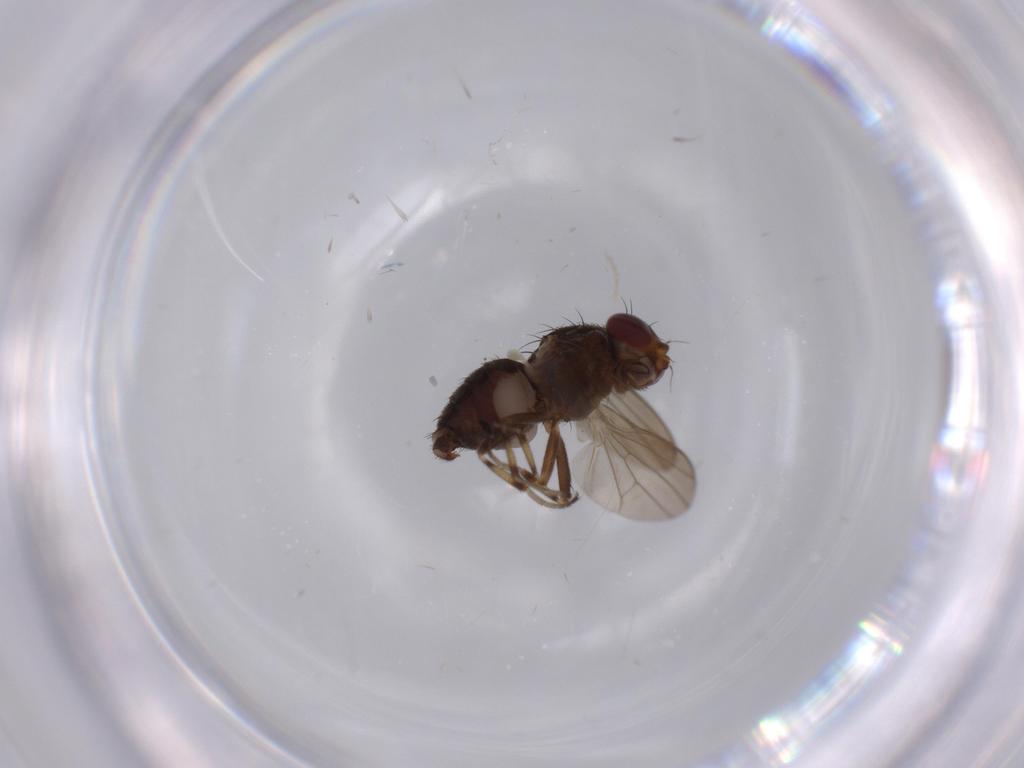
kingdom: Animalia
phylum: Arthropoda
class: Insecta
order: Diptera
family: Heleomyzidae
